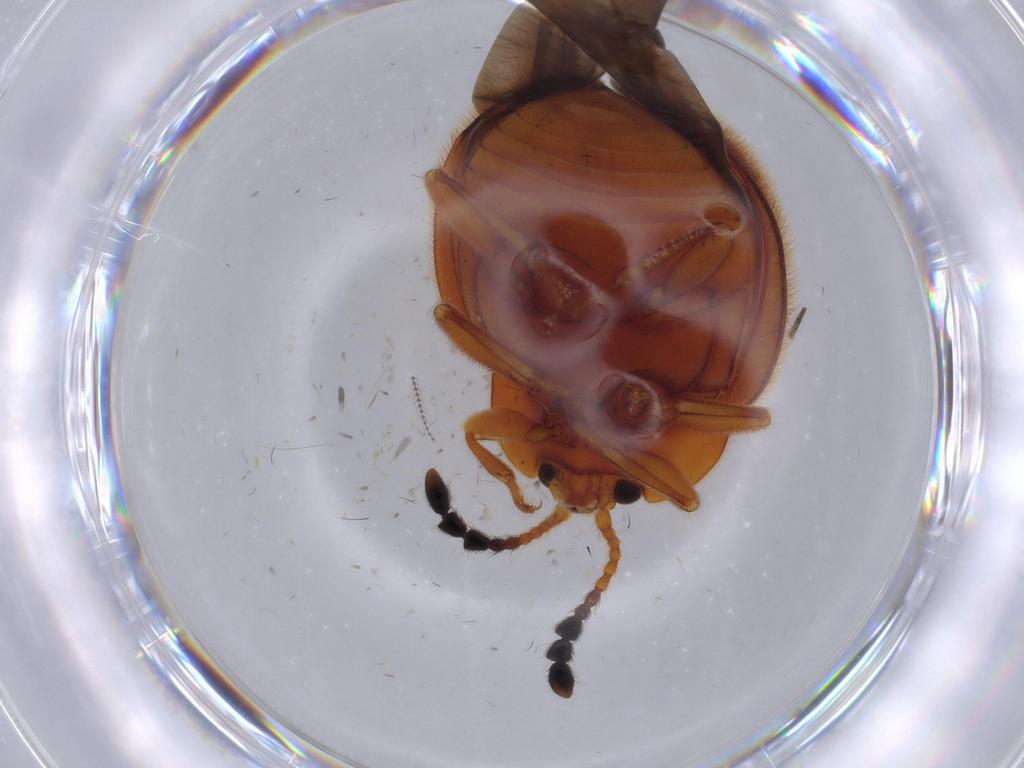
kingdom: Animalia
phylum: Arthropoda
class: Insecta
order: Coleoptera
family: Endomychidae
